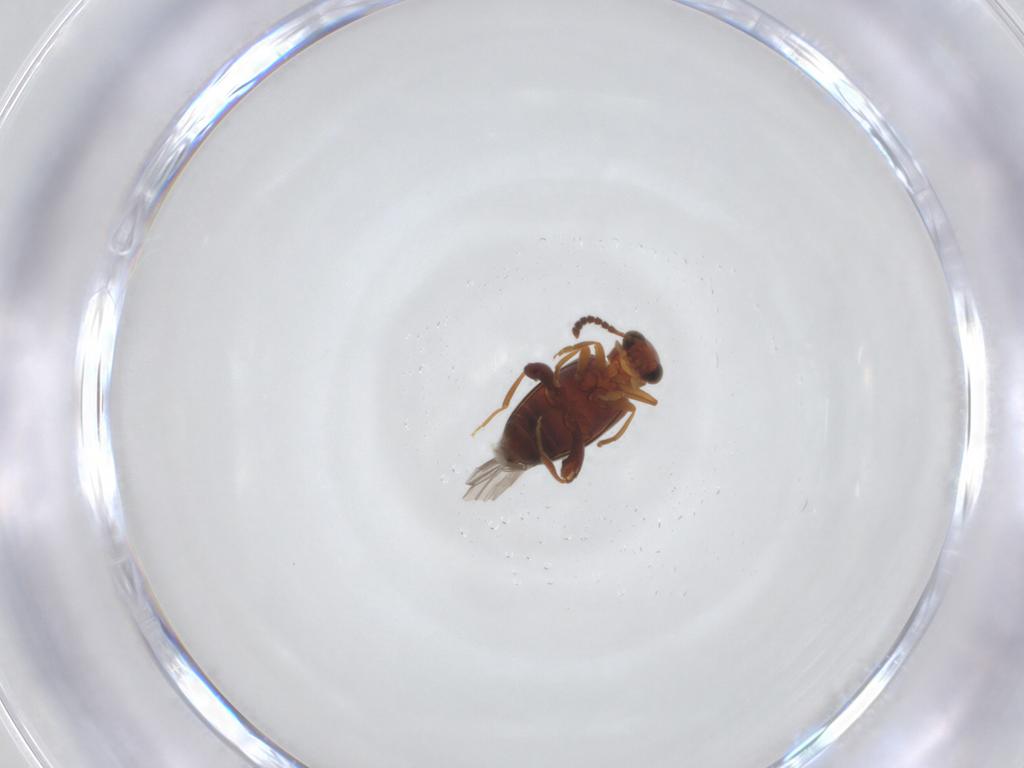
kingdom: Animalia
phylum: Arthropoda
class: Insecta
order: Coleoptera
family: Aderidae
